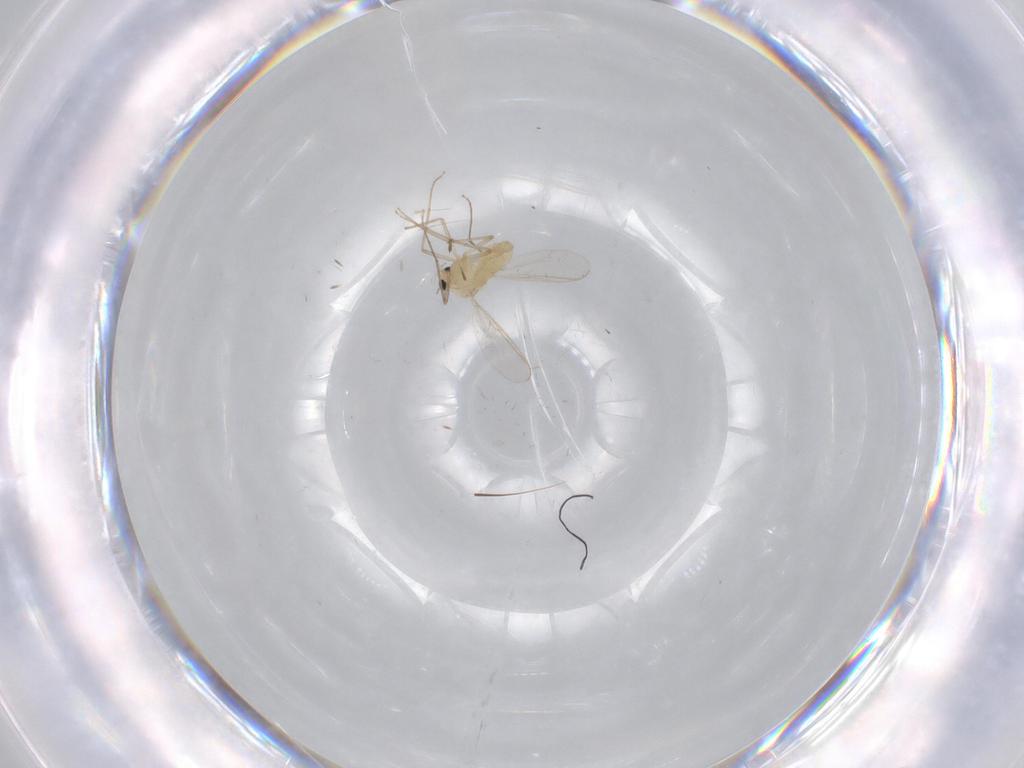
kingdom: Animalia
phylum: Arthropoda
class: Insecta
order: Diptera
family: Chironomidae
